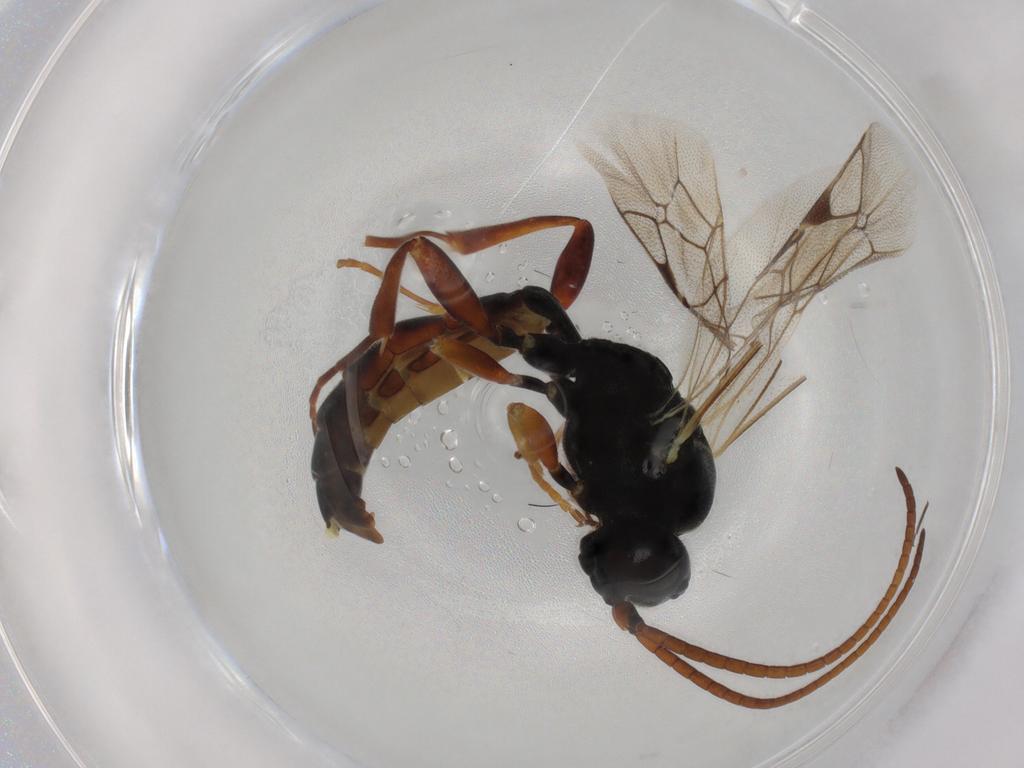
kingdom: Animalia
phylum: Arthropoda
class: Insecta
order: Hymenoptera
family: Ichneumonidae
